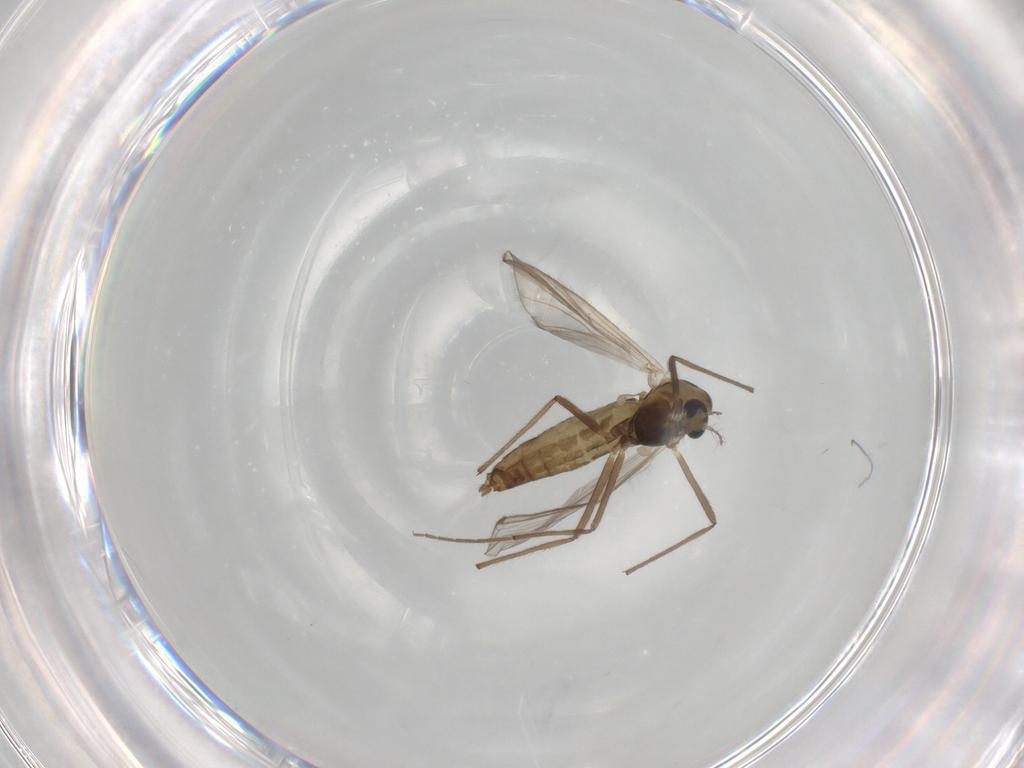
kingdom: Animalia
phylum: Arthropoda
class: Insecta
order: Diptera
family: Chironomidae
